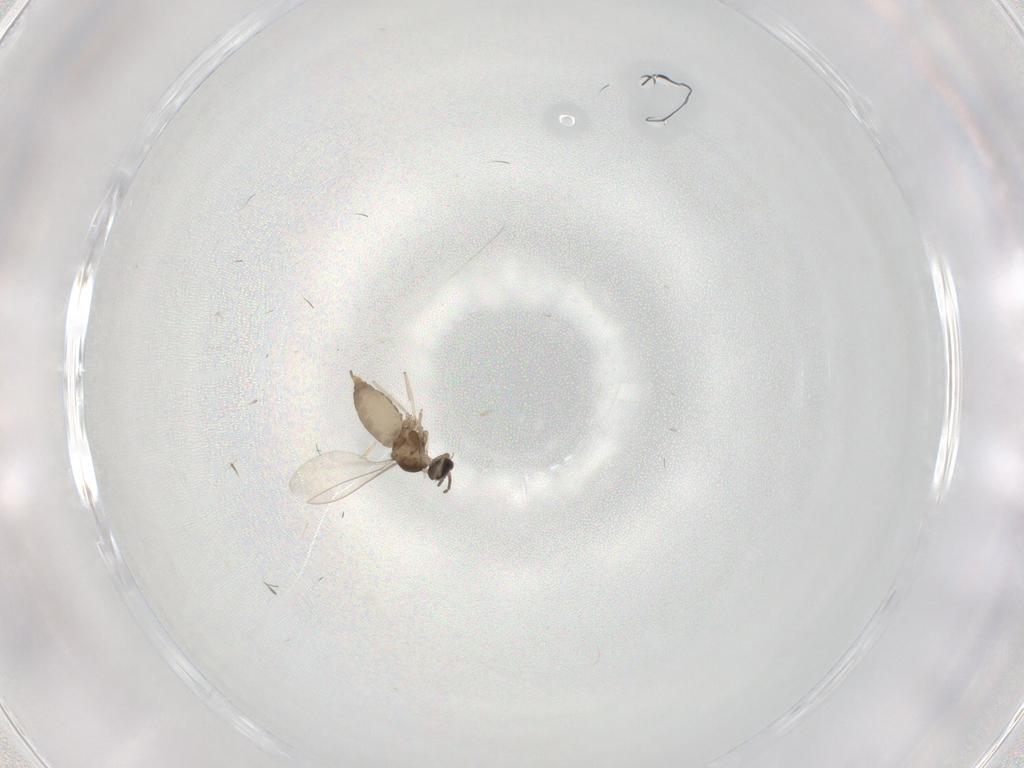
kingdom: Animalia
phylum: Arthropoda
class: Insecta
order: Diptera
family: Cecidomyiidae
